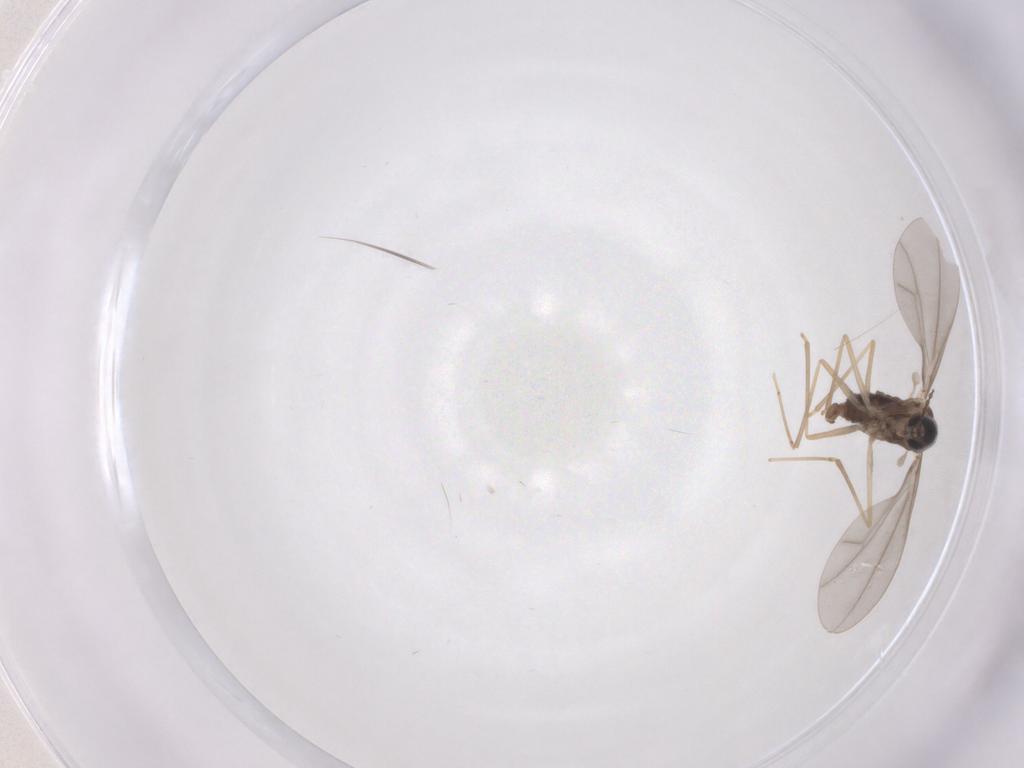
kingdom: Animalia
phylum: Arthropoda
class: Insecta
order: Diptera
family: Cecidomyiidae
